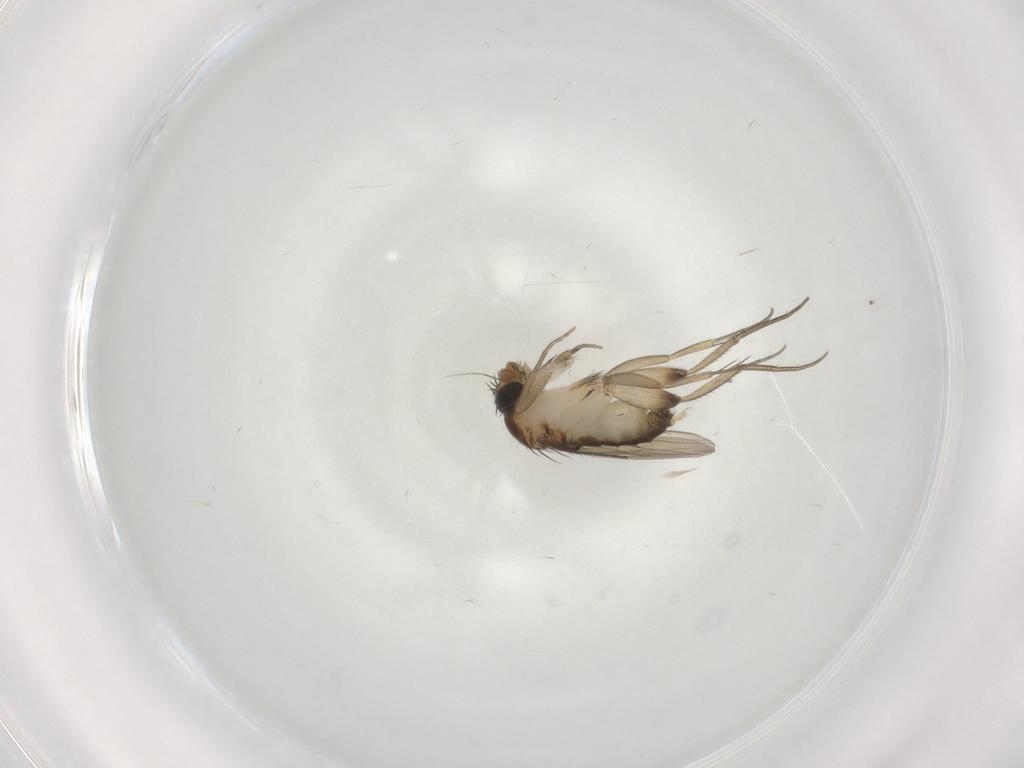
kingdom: Animalia
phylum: Arthropoda
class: Insecta
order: Diptera
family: Phoridae
